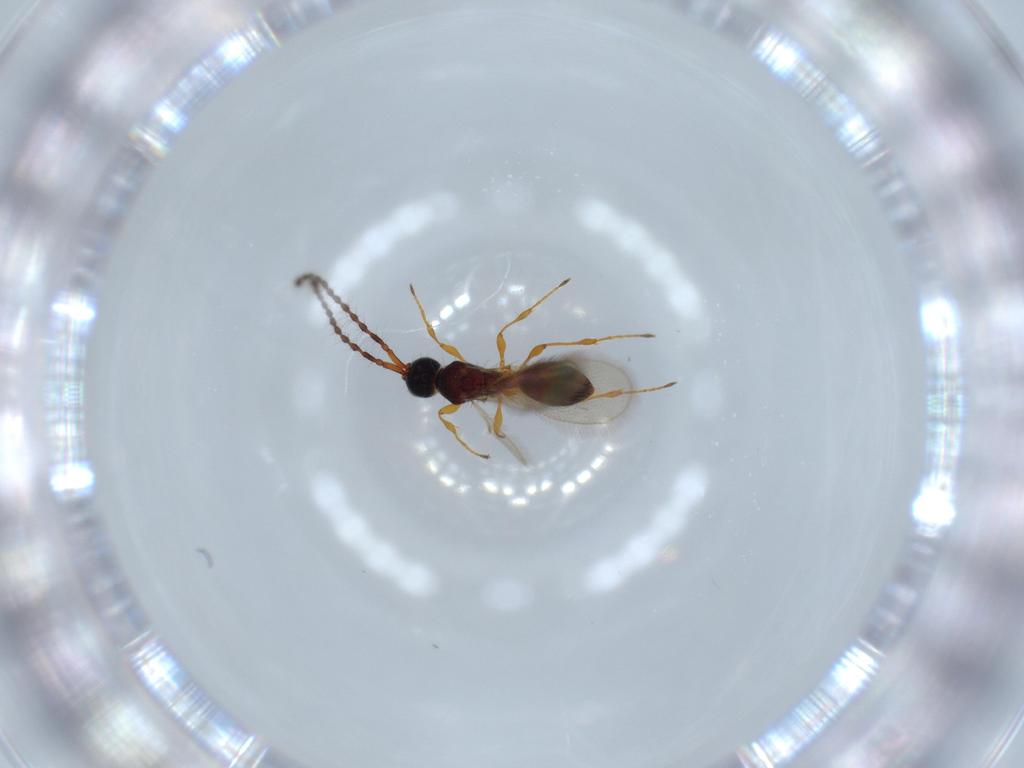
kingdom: Animalia
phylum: Arthropoda
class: Insecta
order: Hymenoptera
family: Diapriidae
